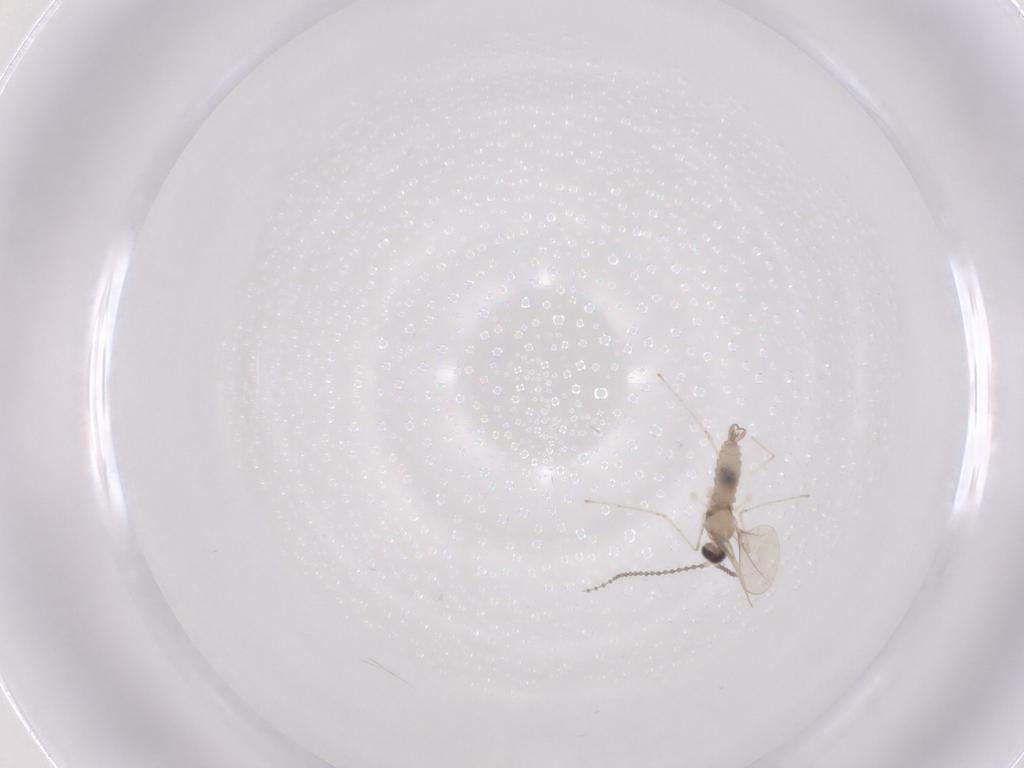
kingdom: Animalia
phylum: Arthropoda
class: Insecta
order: Diptera
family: Cecidomyiidae
